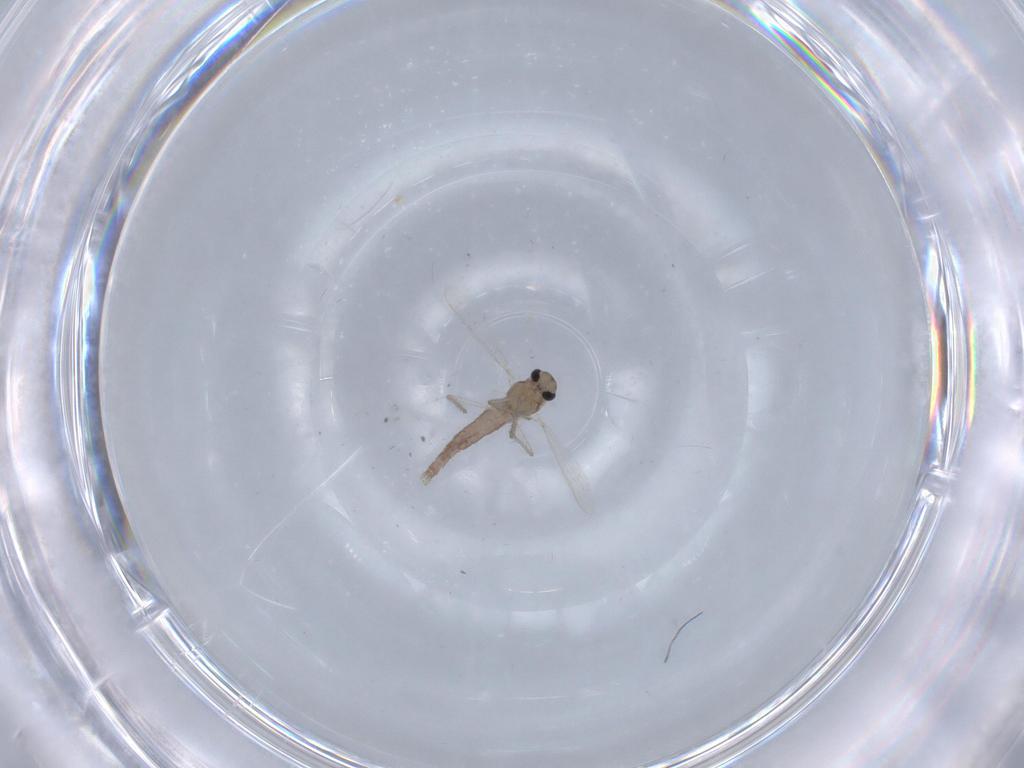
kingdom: Animalia
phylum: Arthropoda
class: Insecta
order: Diptera
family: Chironomidae
